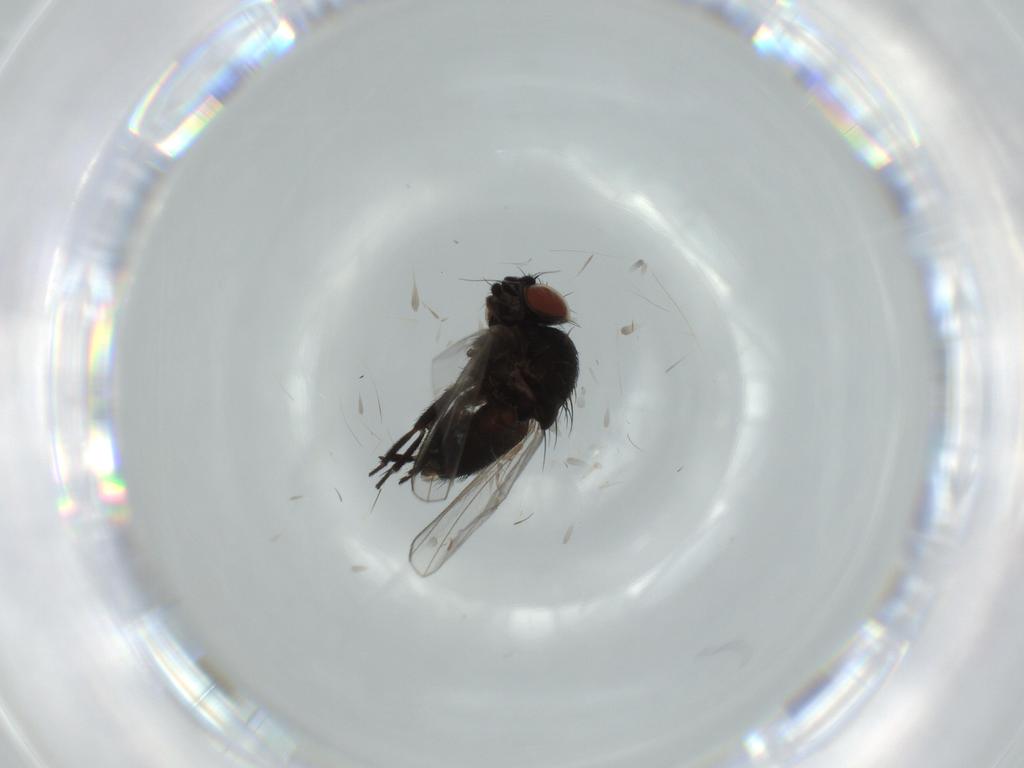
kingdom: Animalia
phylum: Arthropoda
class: Insecta
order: Diptera
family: Milichiidae
